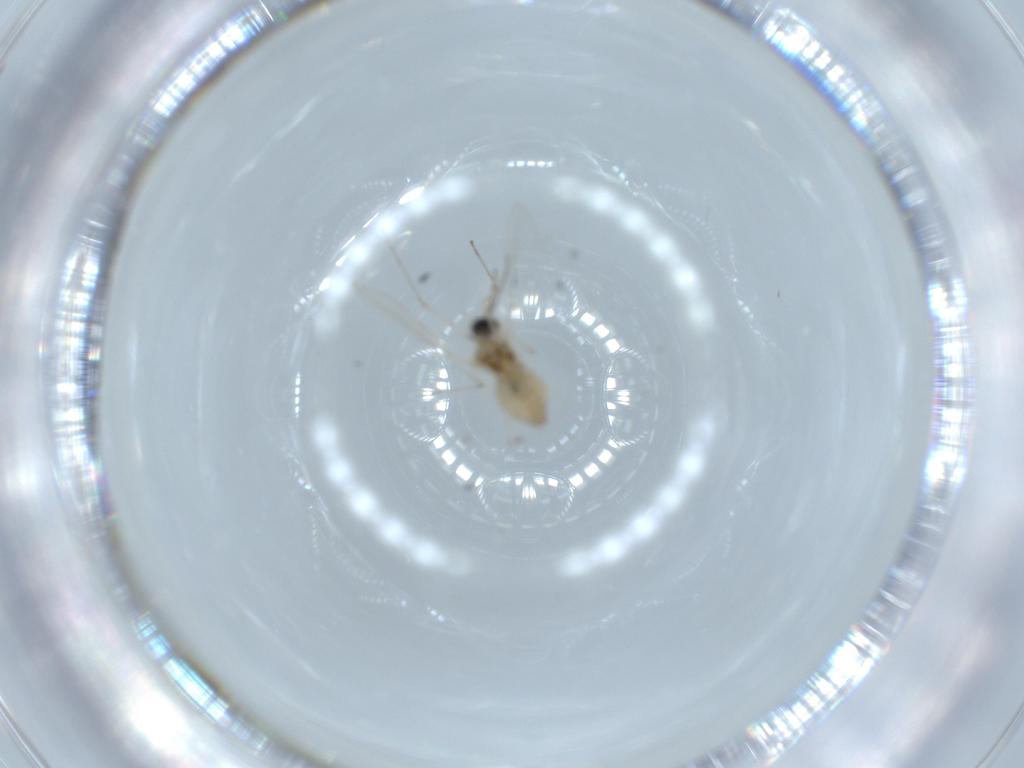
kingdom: Animalia
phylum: Arthropoda
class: Insecta
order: Diptera
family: Cecidomyiidae
